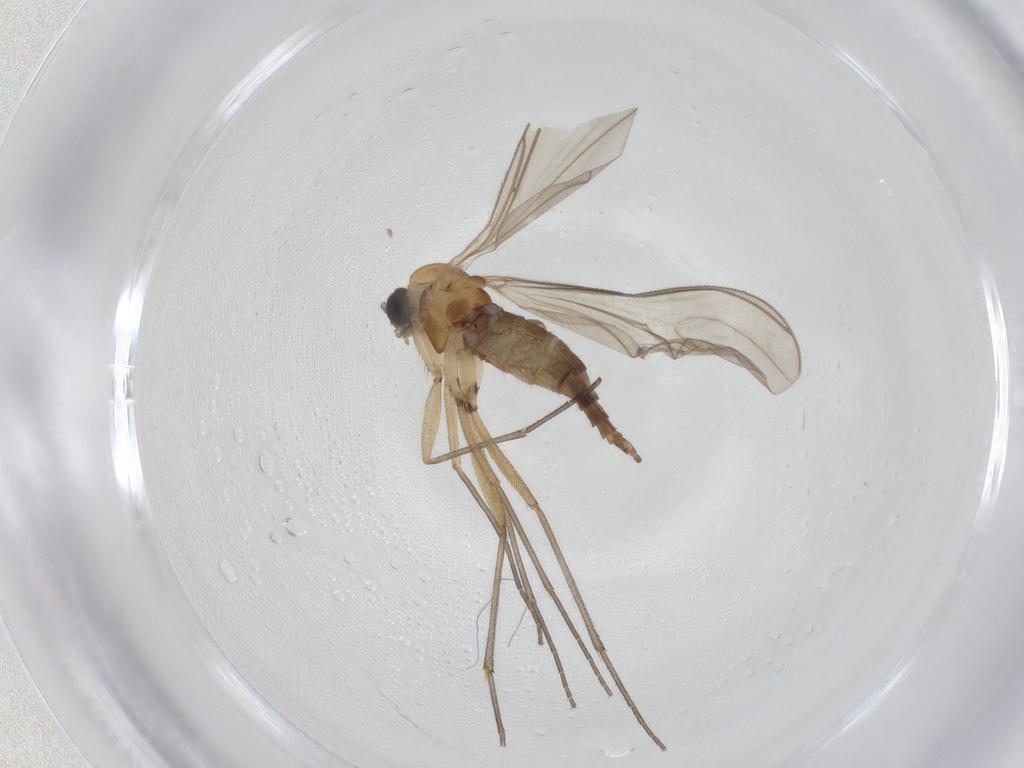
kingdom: Animalia
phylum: Arthropoda
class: Insecta
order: Diptera
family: Sciaridae
